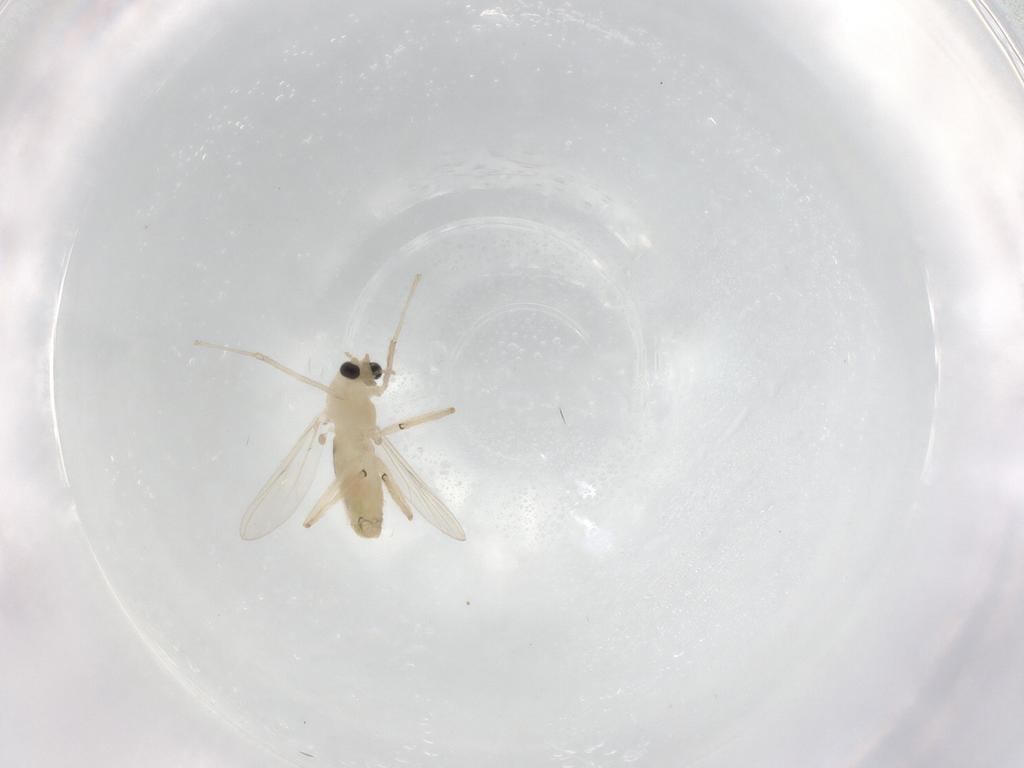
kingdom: Animalia
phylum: Arthropoda
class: Insecta
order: Diptera
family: Chironomidae
